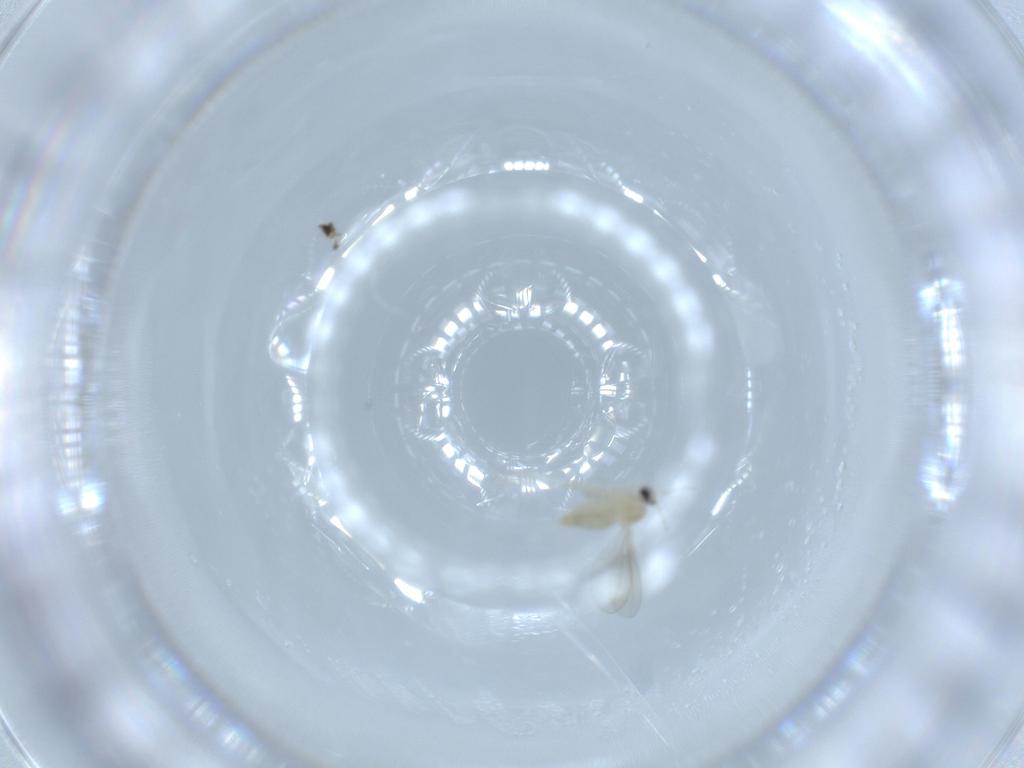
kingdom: Animalia
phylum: Arthropoda
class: Insecta
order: Diptera
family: Cecidomyiidae
